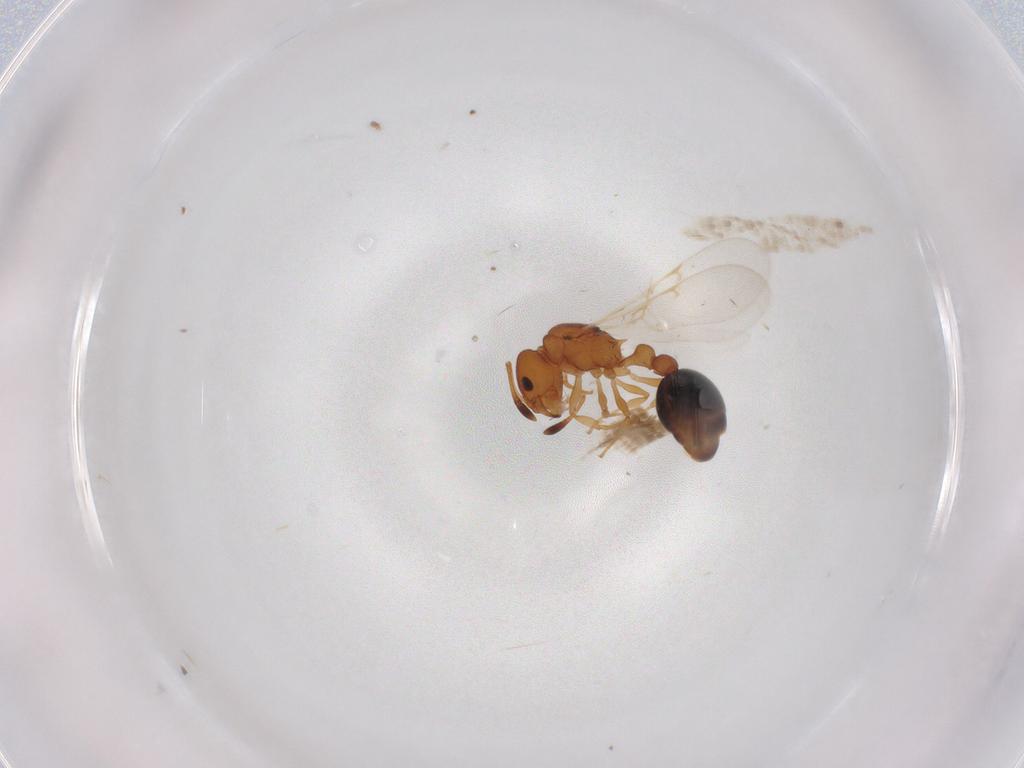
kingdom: Animalia
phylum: Arthropoda
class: Insecta
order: Hymenoptera
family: Formicidae
